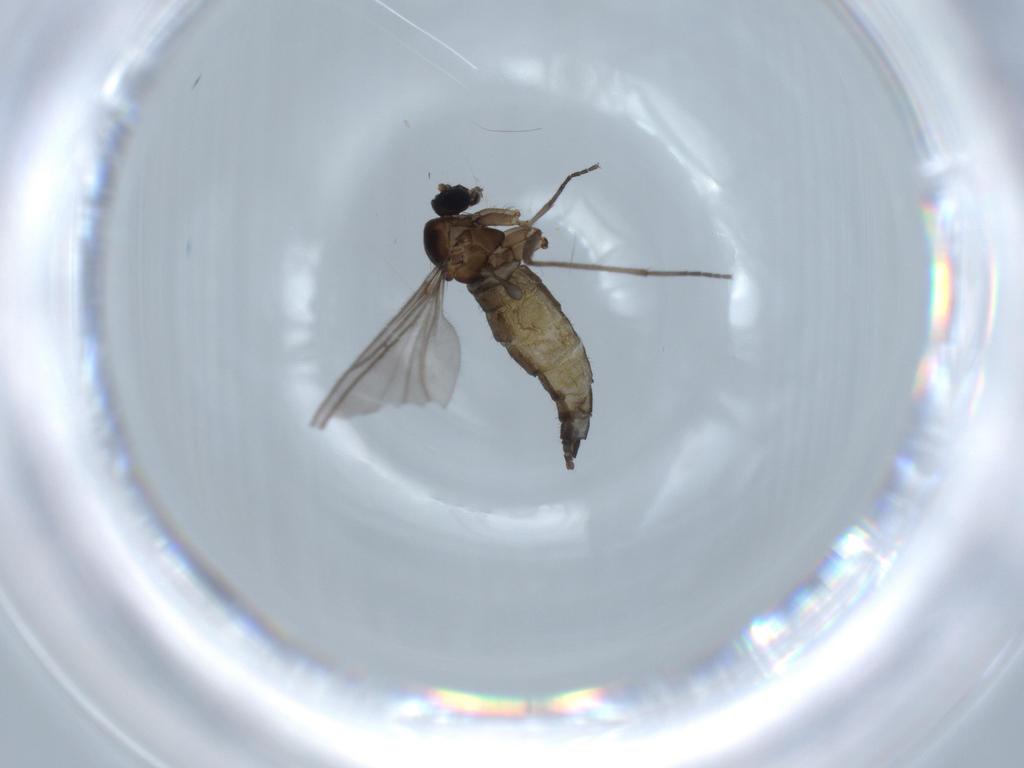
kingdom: Animalia
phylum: Arthropoda
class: Insecta
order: Diptera
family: Sciaridae
